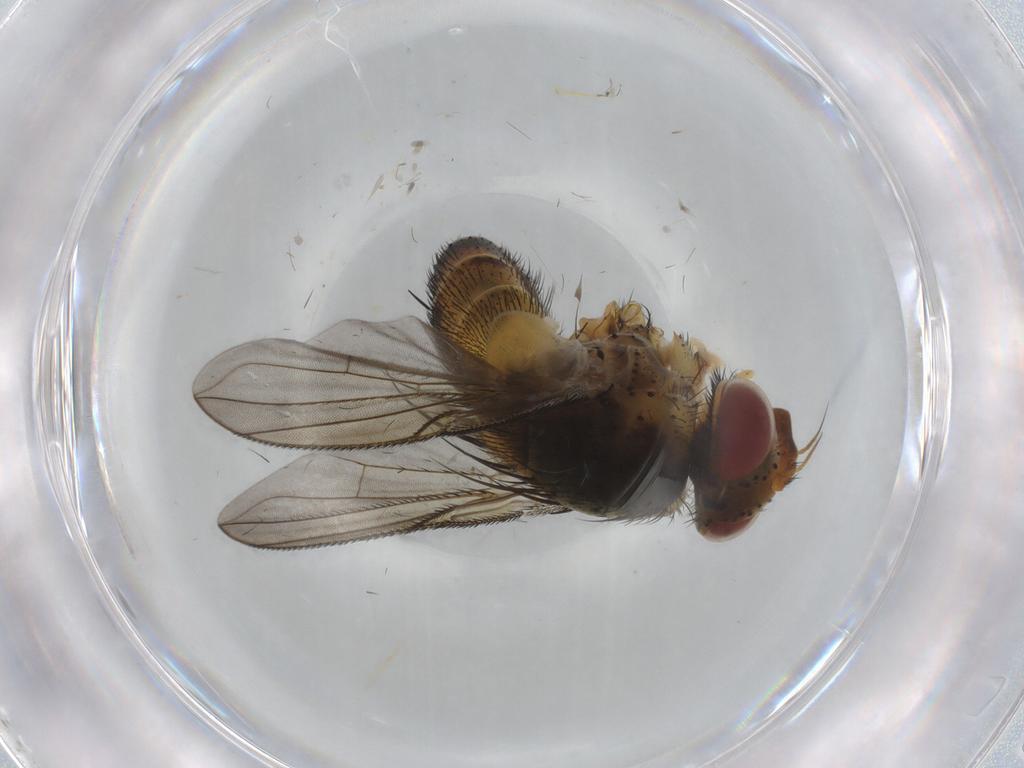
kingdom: Animalia
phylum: Arthropoda
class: Insecta
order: Diptera
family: Tachinidae
